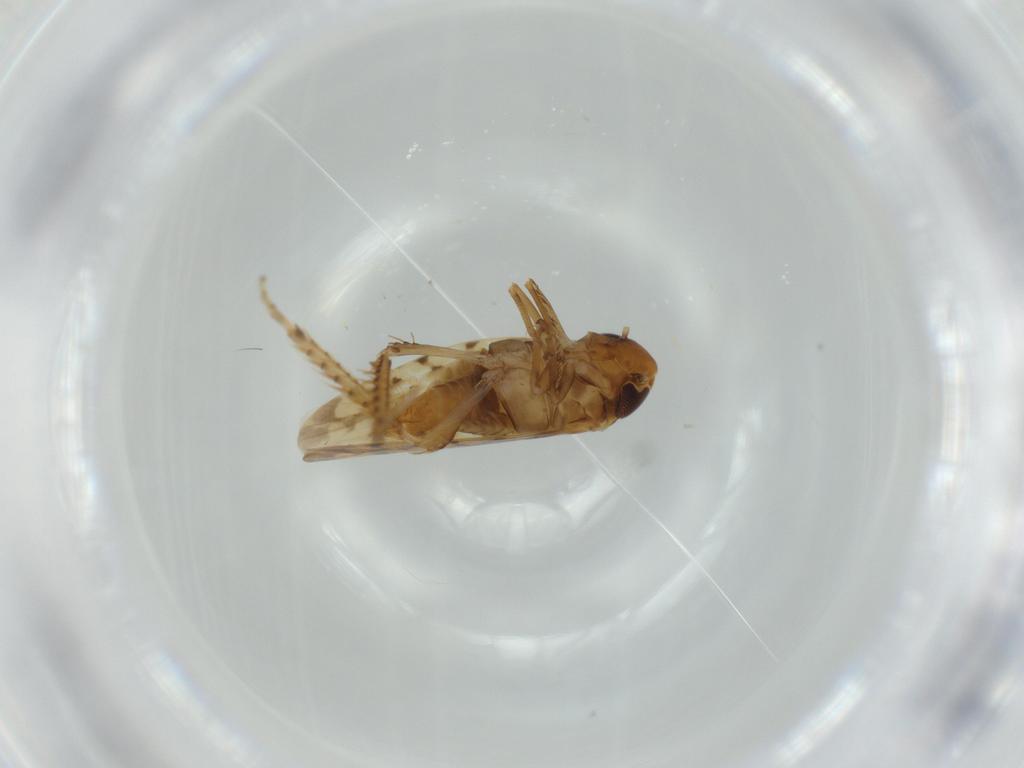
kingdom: Animalia
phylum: Arthropoda
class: Insecta
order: Hemiptera
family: Cicadellidae
